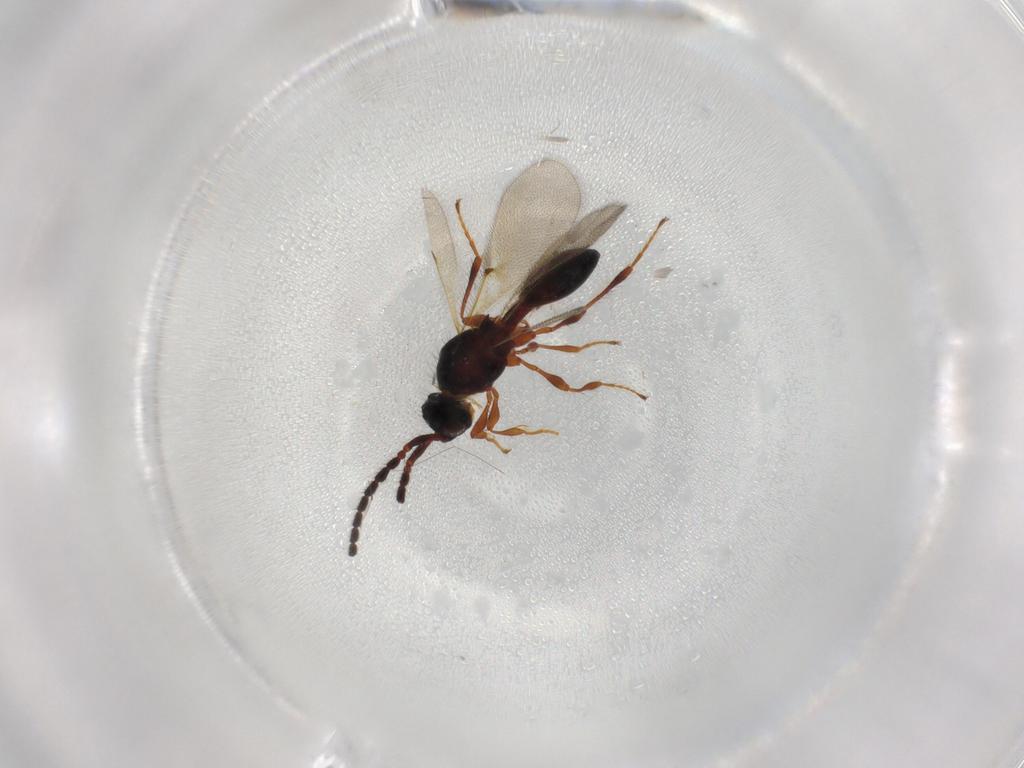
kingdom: Animalia
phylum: Arthropoda
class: Insecta
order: Hymenoptera
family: Diapriidae
